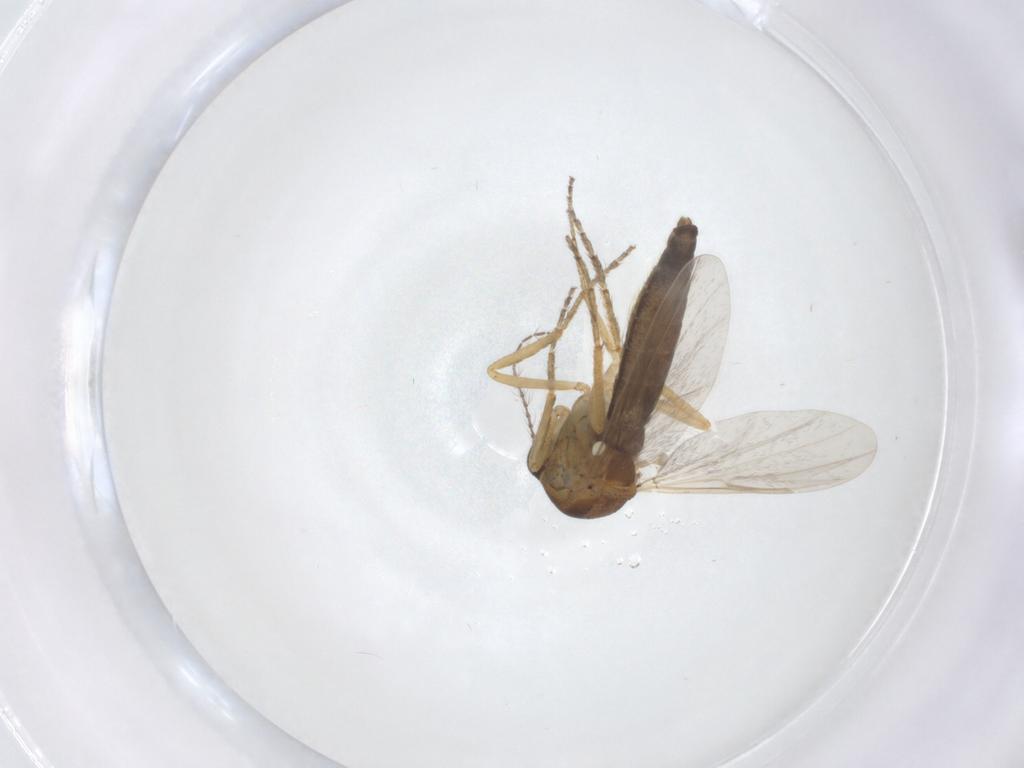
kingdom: Animalia
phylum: Arthropoda
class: Insecta
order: Diptera
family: Ceratopogonidae
